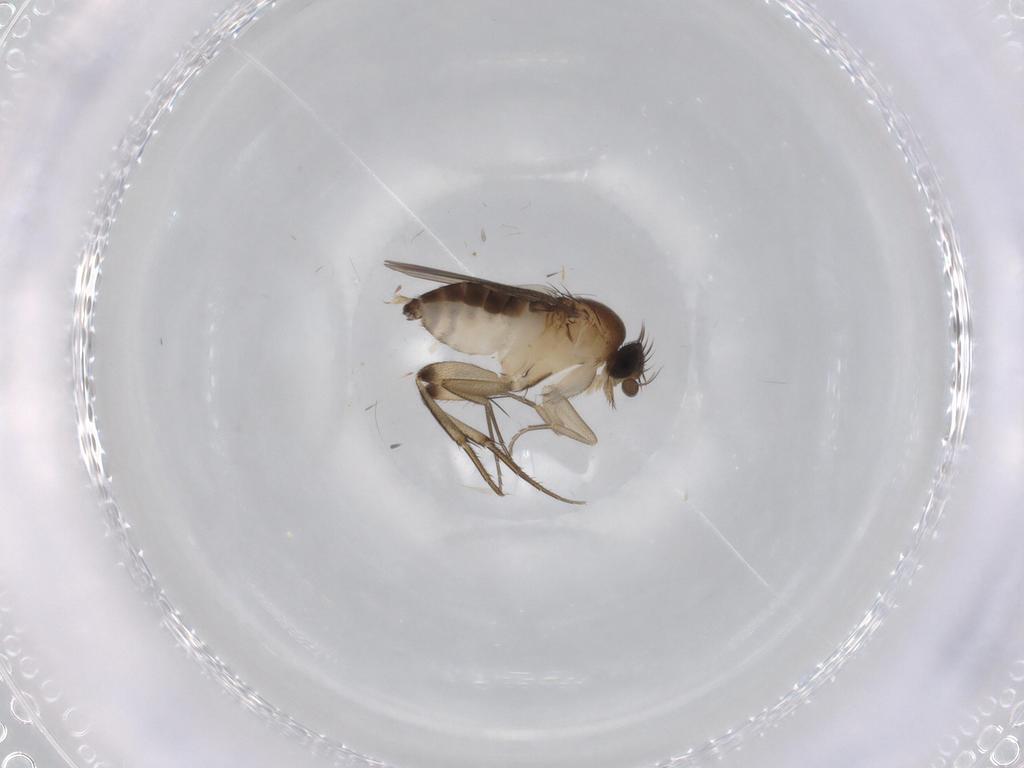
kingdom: Animalia
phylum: Arthropoda
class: Insecta
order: Diptera
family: Phoridae
